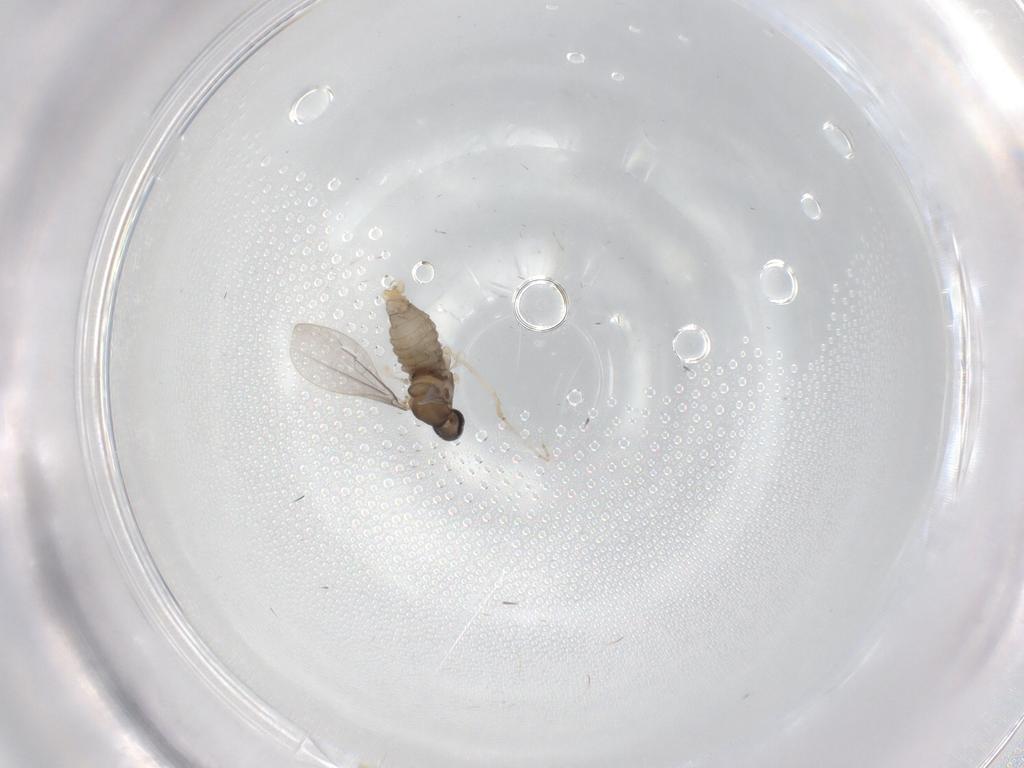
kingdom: Animalia
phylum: Arthropoda
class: Insecta
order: Diptera
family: Cecidomyiidae
